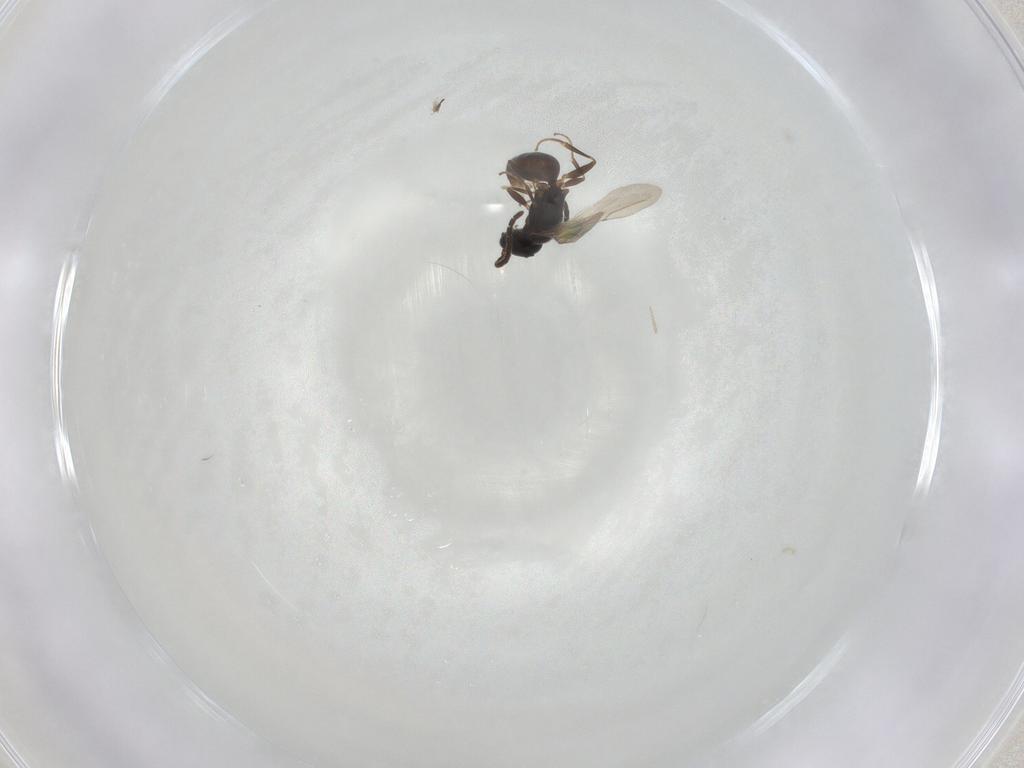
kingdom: Animalia
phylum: Arthropoda
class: Insecta
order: Hymenoptera
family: Bethylidae
